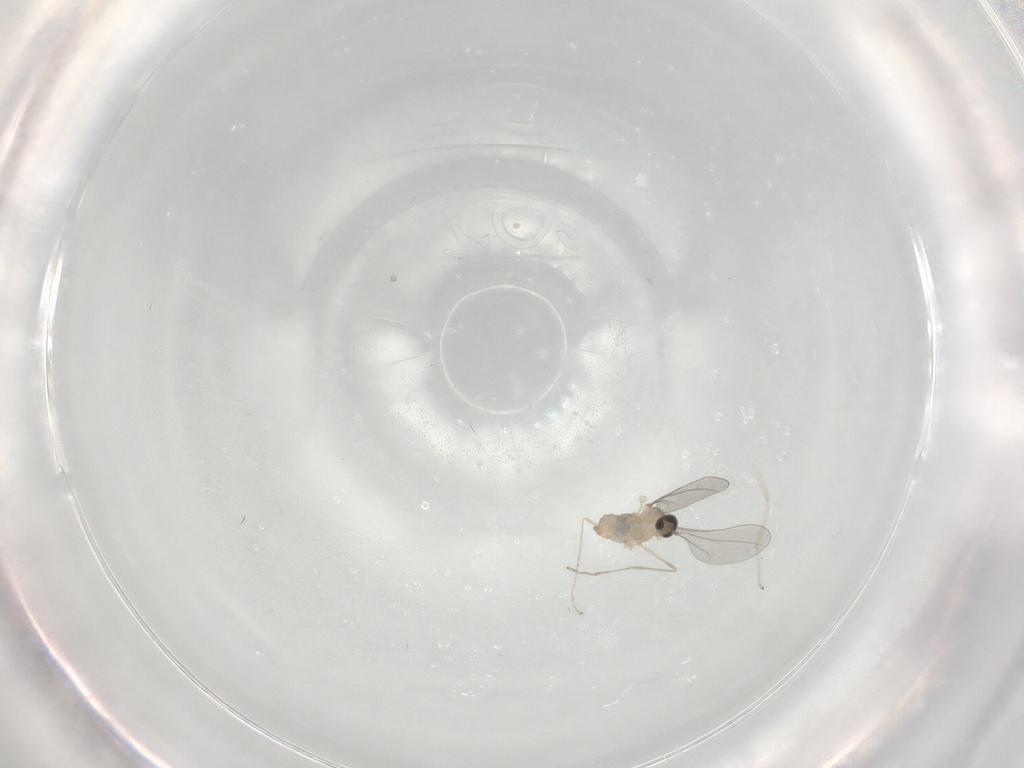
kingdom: Animalia
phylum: Arthropoda
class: Insecta
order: Diptera
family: Cecidomyiidae
